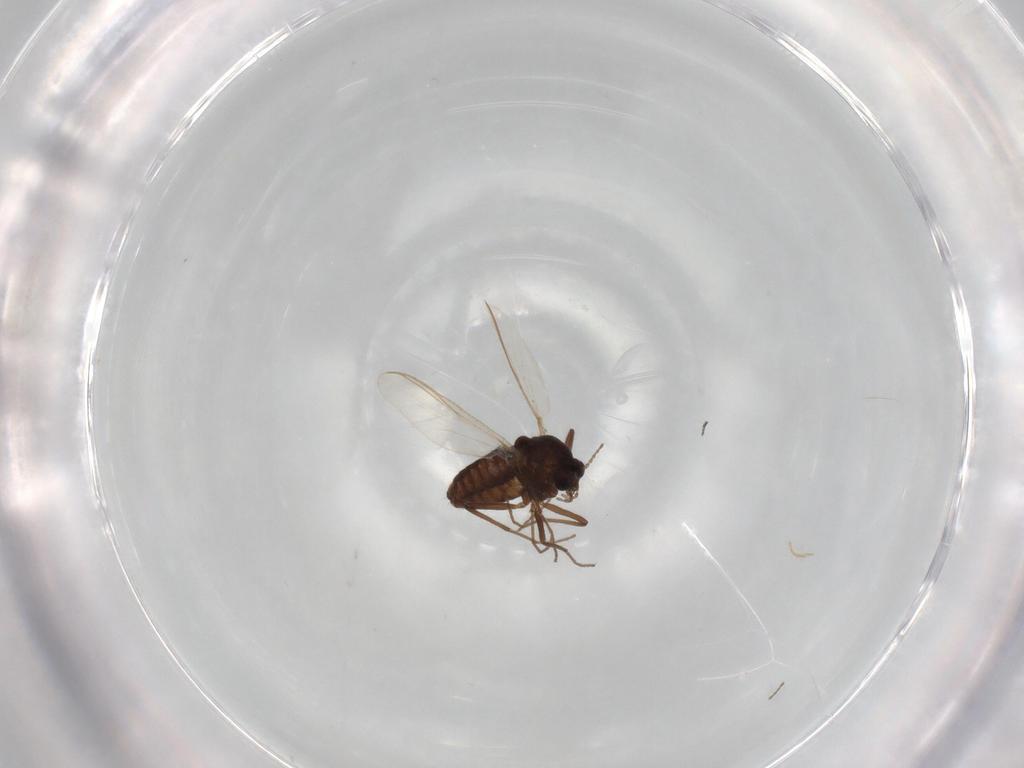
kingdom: Animalia
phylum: Arthropoda
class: Insecta
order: Diptera
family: Chironomidae
